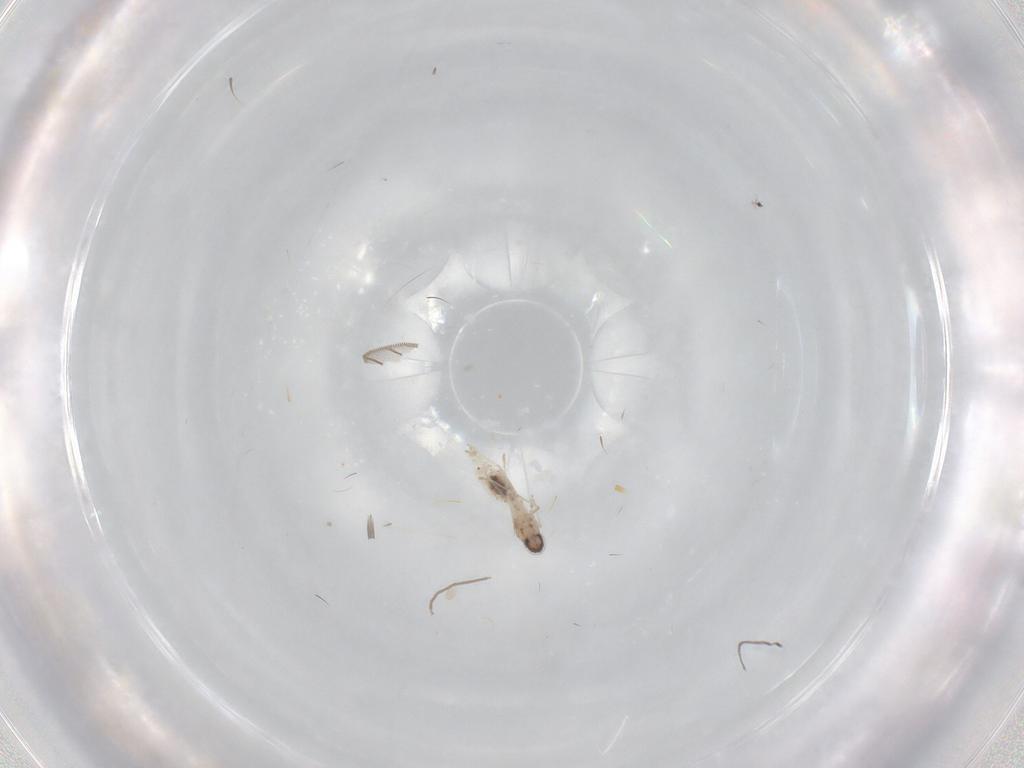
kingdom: Animalia
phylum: Arthropoda
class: Insecta
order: Diptera
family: Chironomidae
